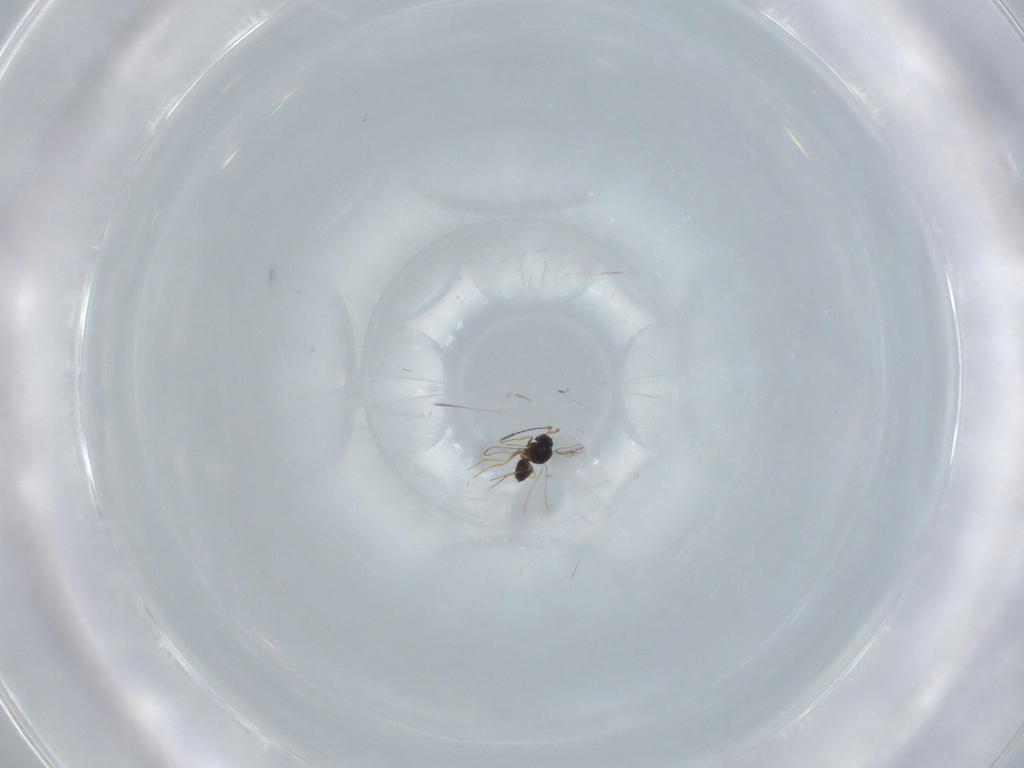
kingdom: Animalia
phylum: Arthropoda
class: Insecta
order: Hymenoptera
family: Mymaridae
